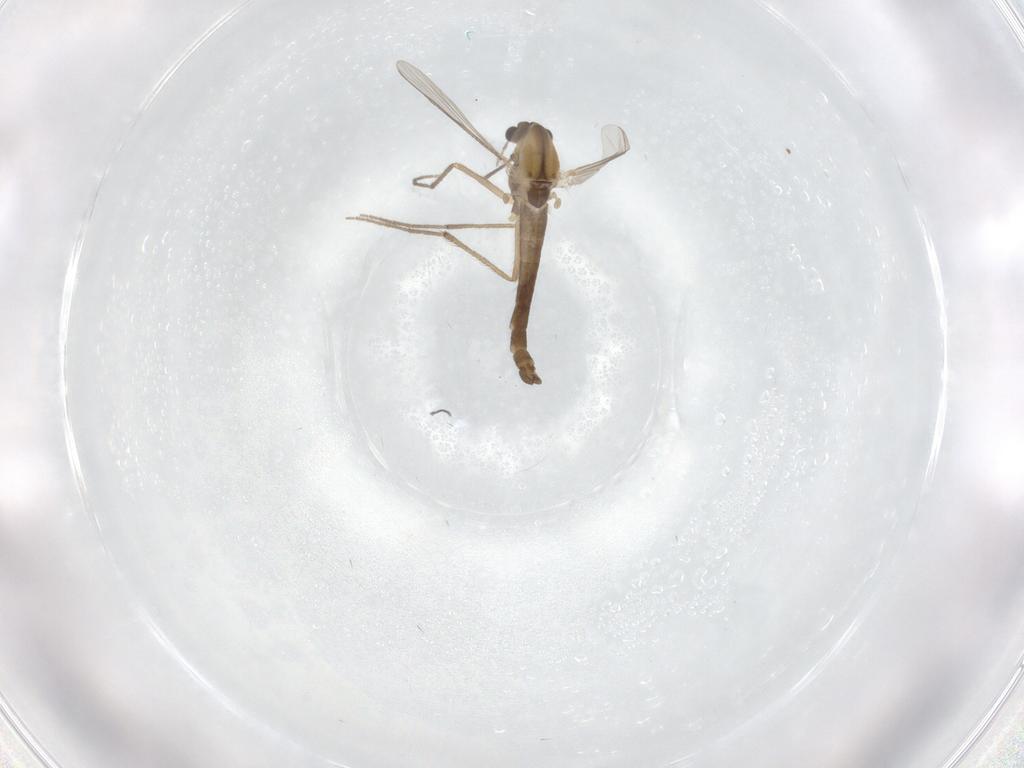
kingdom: Animalia
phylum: Arthropoda
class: Insecta
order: Diptera
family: Chironomidae
